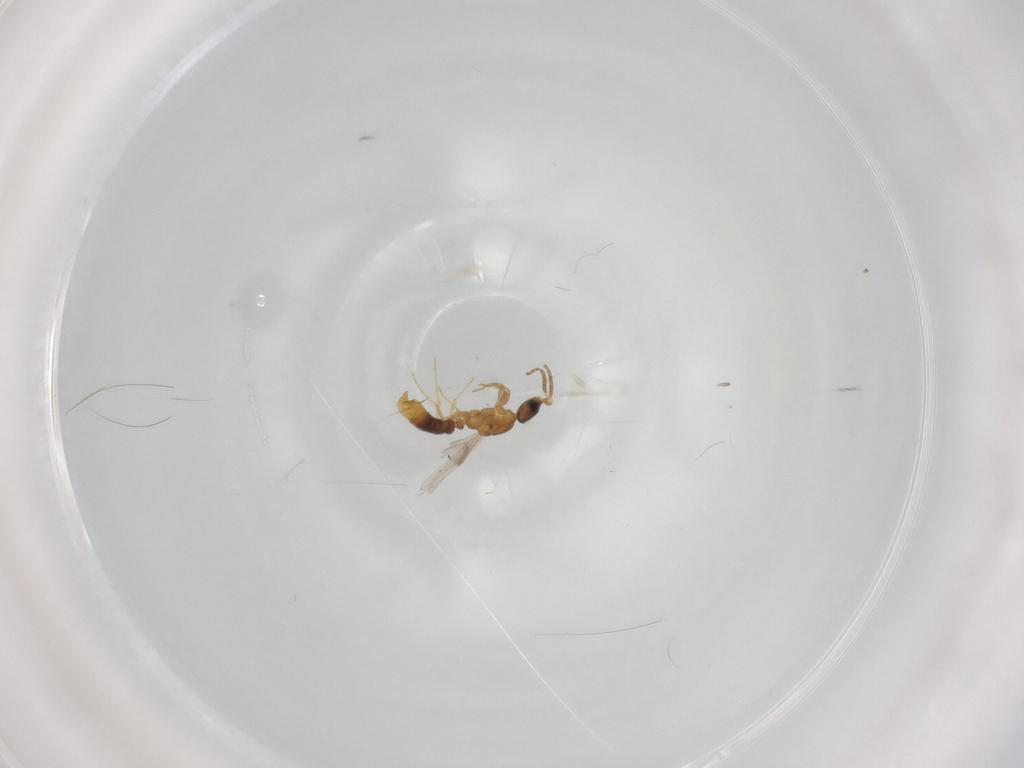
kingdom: Animalia
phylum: Arthropoda
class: Insecta
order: Hymenoptera
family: Formicidae
